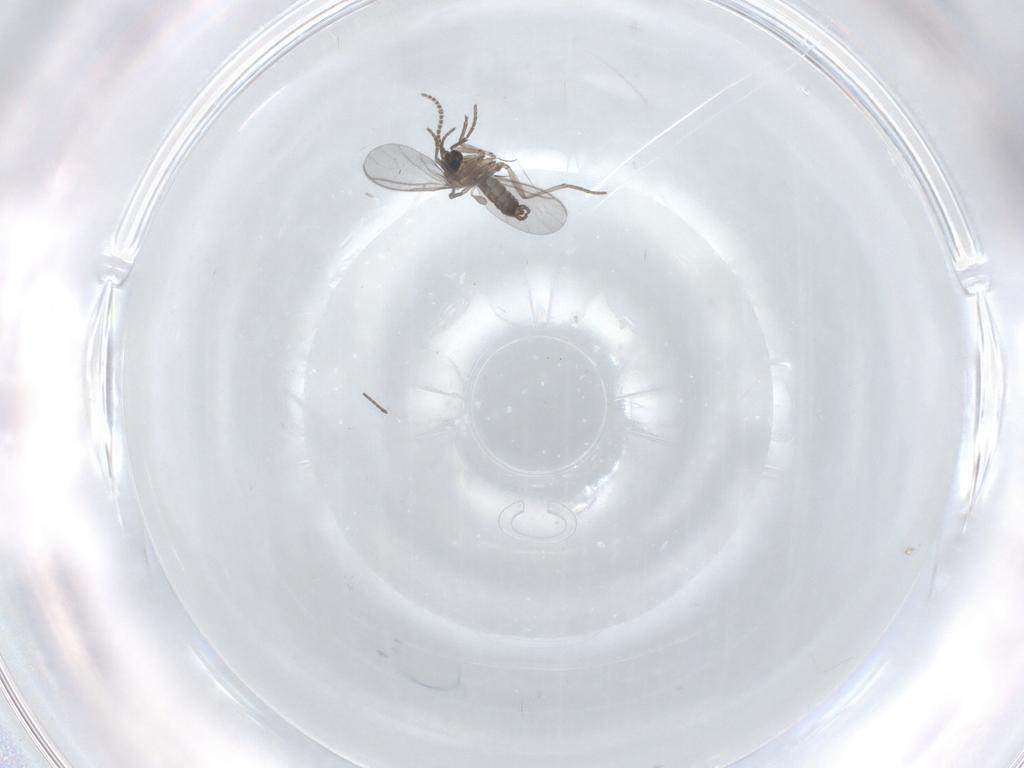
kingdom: Animalia
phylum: Arthropoda
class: Insecta
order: Diptera
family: Sciaridae
